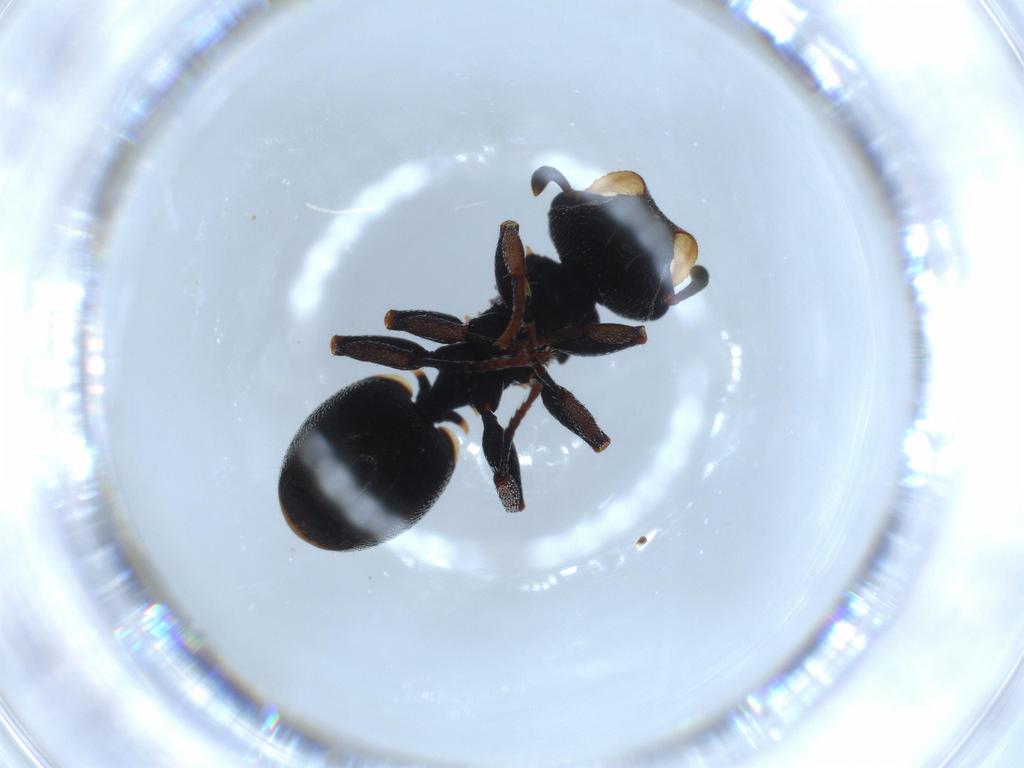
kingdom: Animalia
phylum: Arthropoda
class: Insecta
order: Hymenoptera
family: Formicidae
